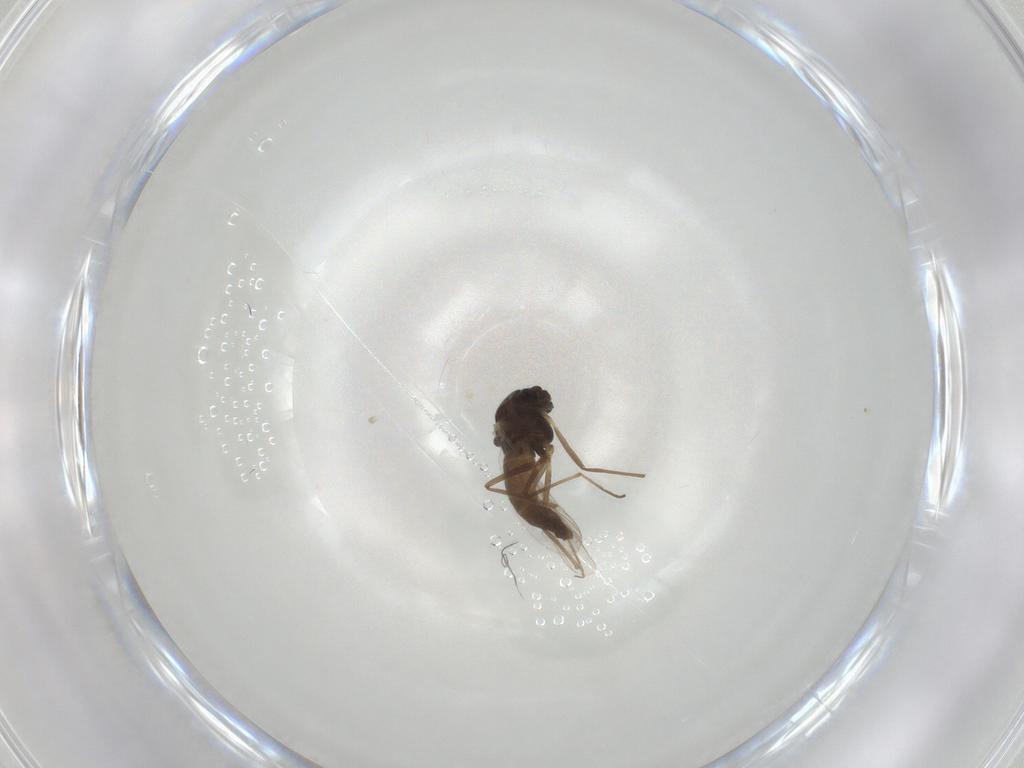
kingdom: Animalia
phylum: Arthropoda
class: Insecta
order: Diptera
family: Chironomidae
